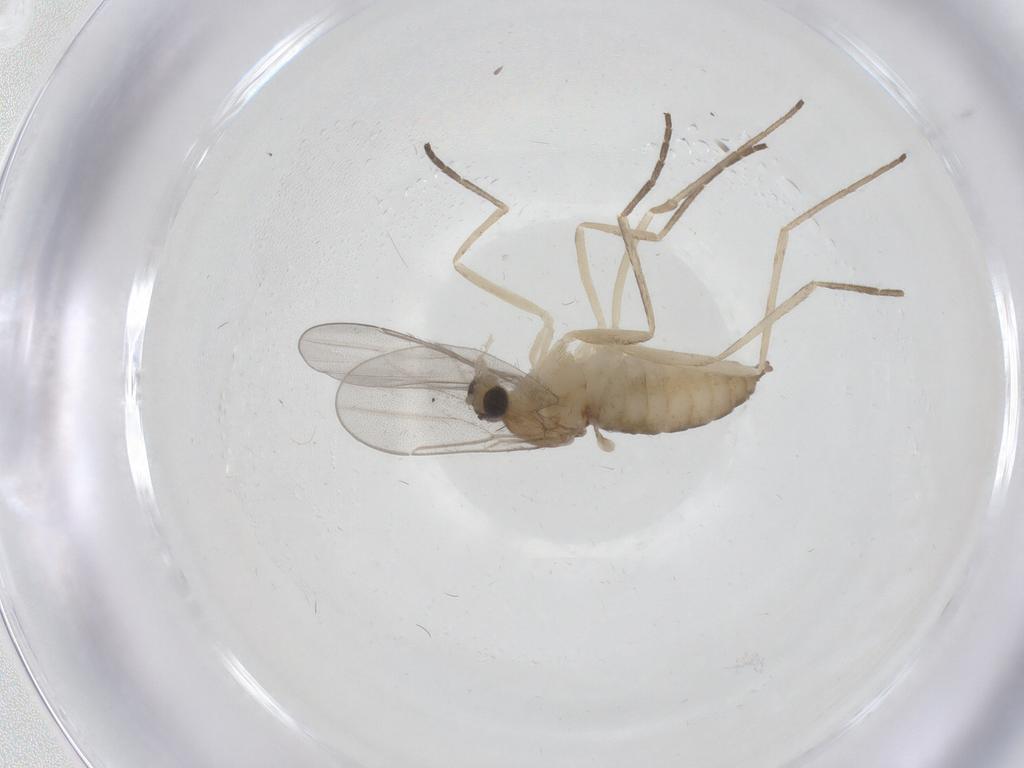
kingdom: Animalia
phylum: Arthropoda
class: Insecta
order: Diptera
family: Cecidomyiidae
